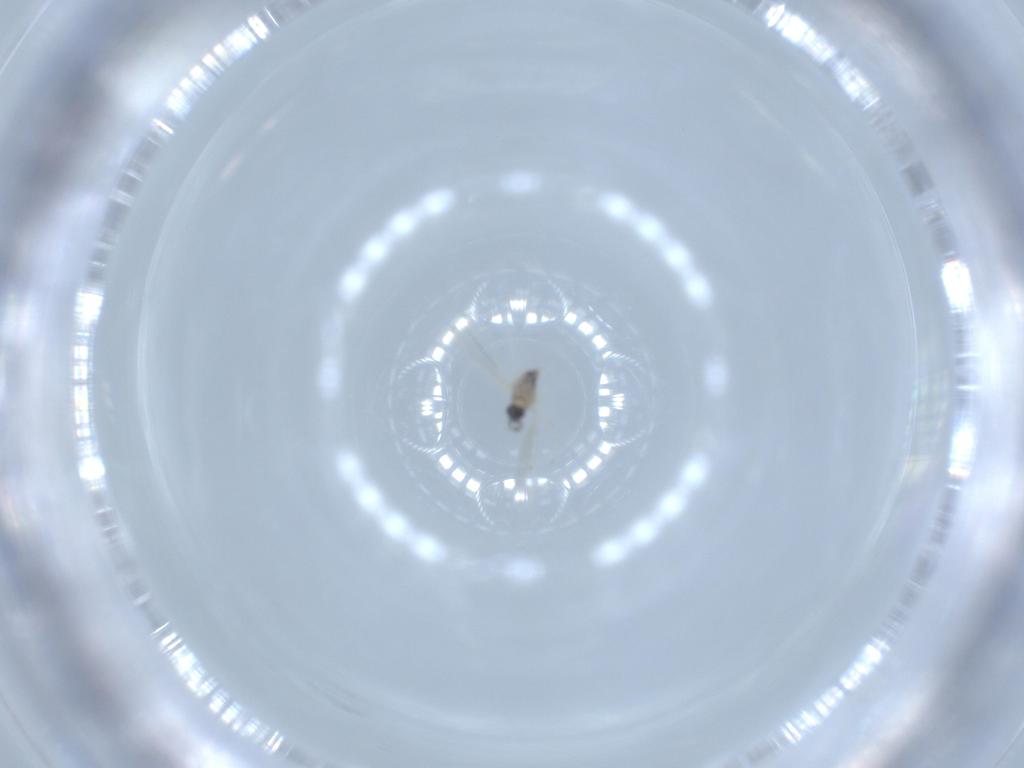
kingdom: Animalia
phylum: Arthropoda
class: Insecta
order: Diptera
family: Cecidomyiidae
